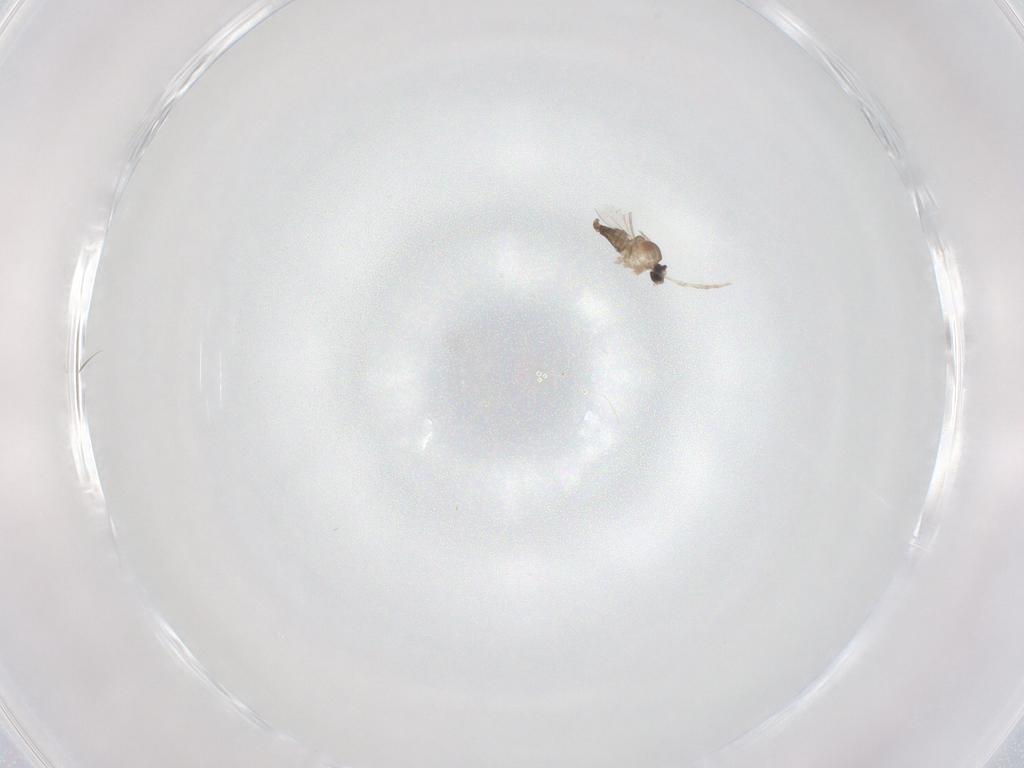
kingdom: Animalia
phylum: Arthropoda
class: Insecta
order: Diptera
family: Cecidomyiidae
